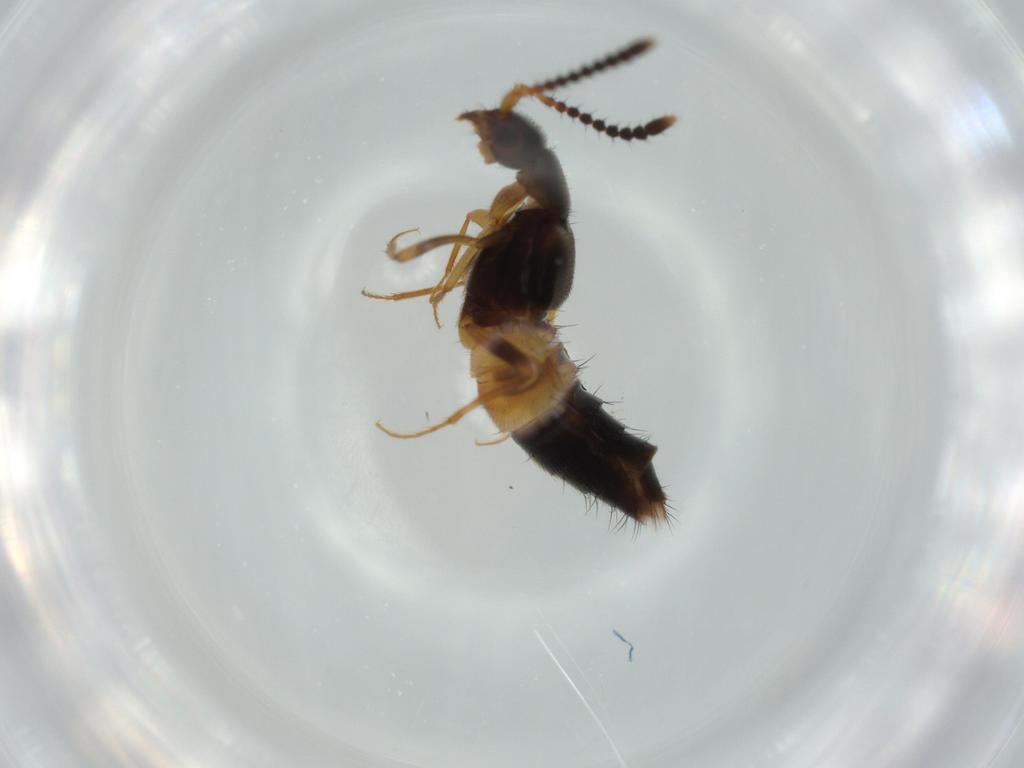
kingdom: Animalia
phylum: Arthropoda
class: Insecta
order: Coleoptera
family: Staphylinidae
